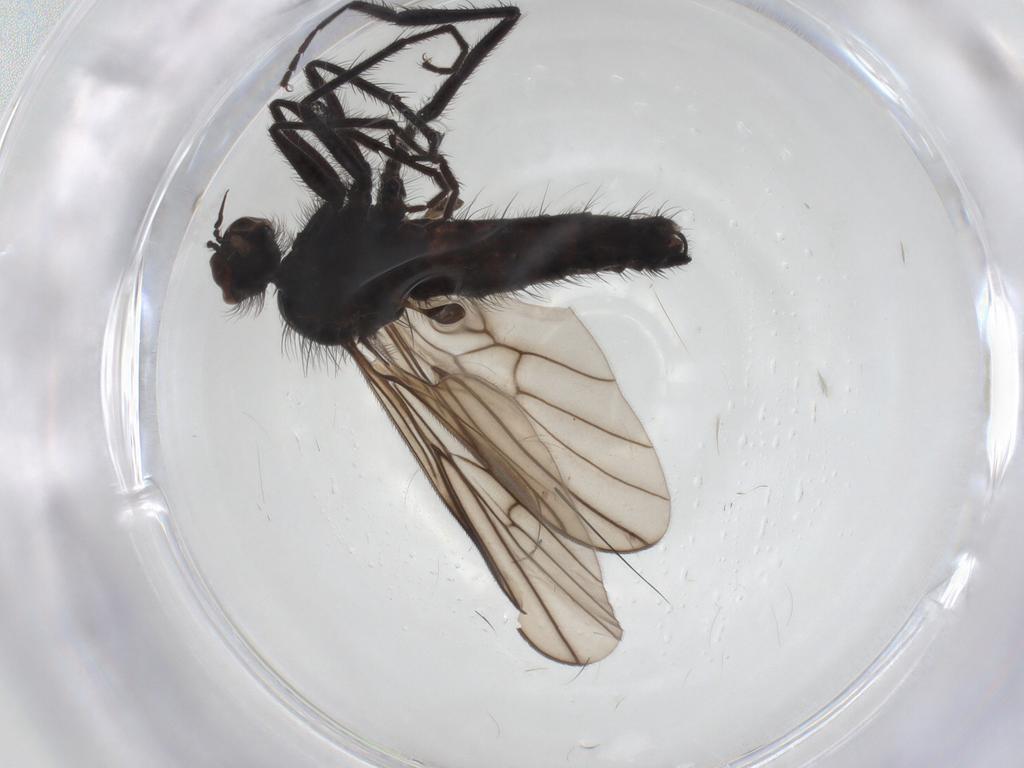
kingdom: Animalia
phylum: Arthropoda
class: Insecta
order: Diptera
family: Empididae
